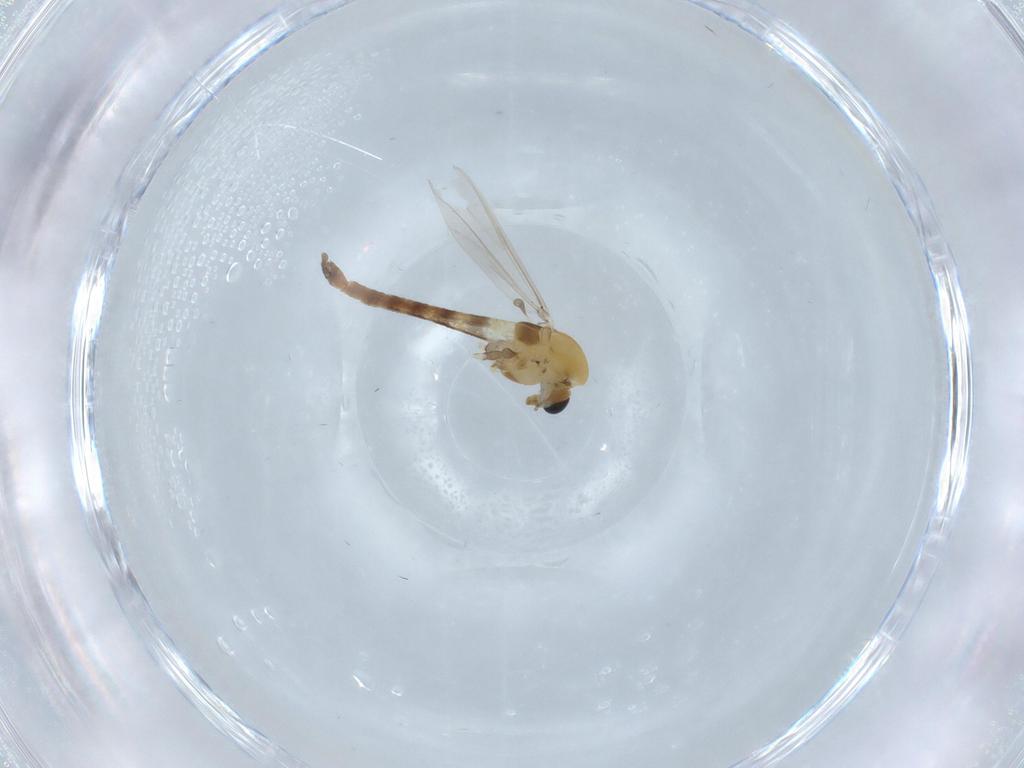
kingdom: Animalia
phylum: Arthropoda
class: Insecta
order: Diptera
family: Chironomidae
